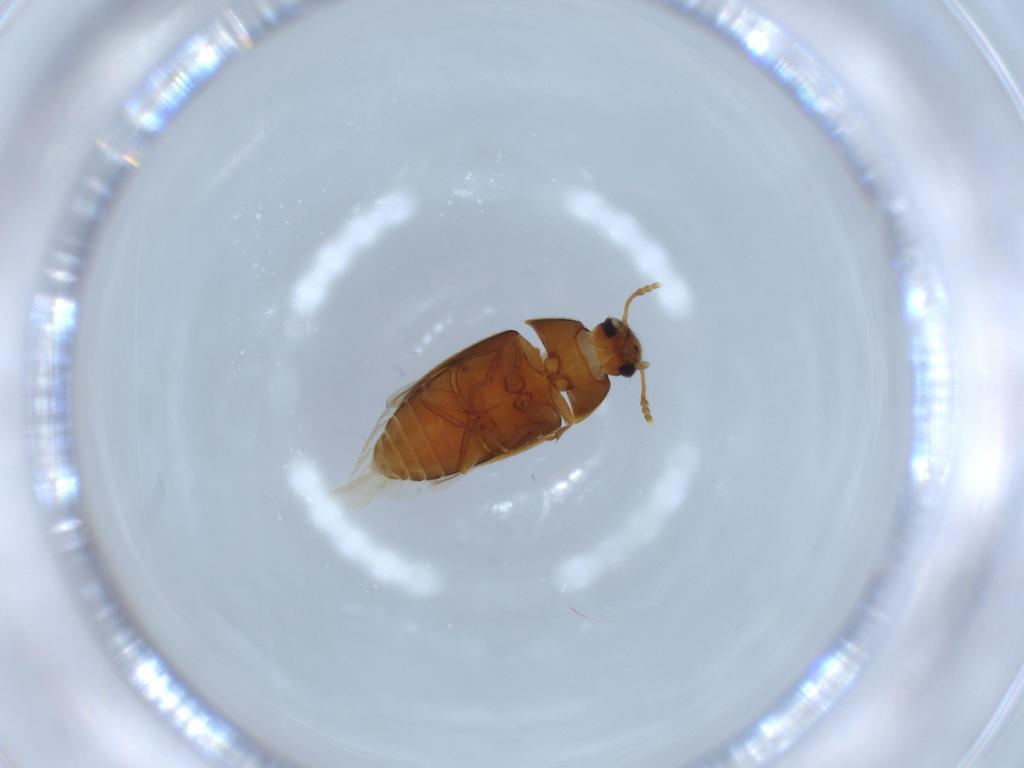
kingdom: Animalia
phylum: Arthropoda
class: Insecta
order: Coleoptera
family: Mycetophagidae
